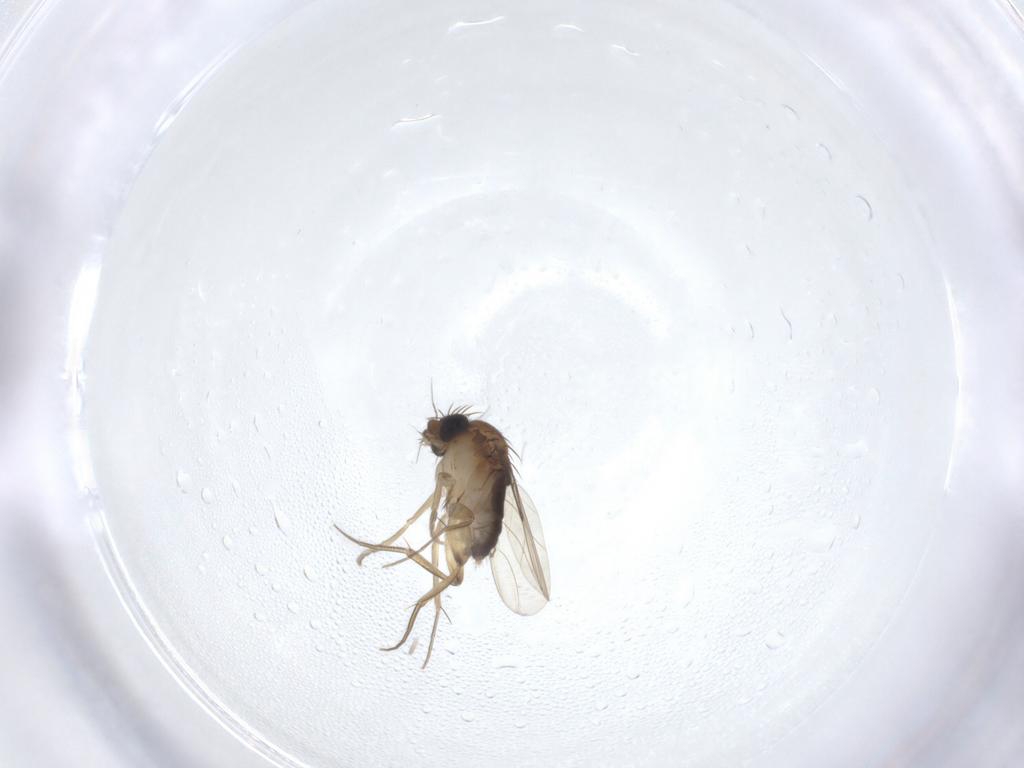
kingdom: Animalia
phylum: Arthropoda
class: Insecta
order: Diptera
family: Phoridae
